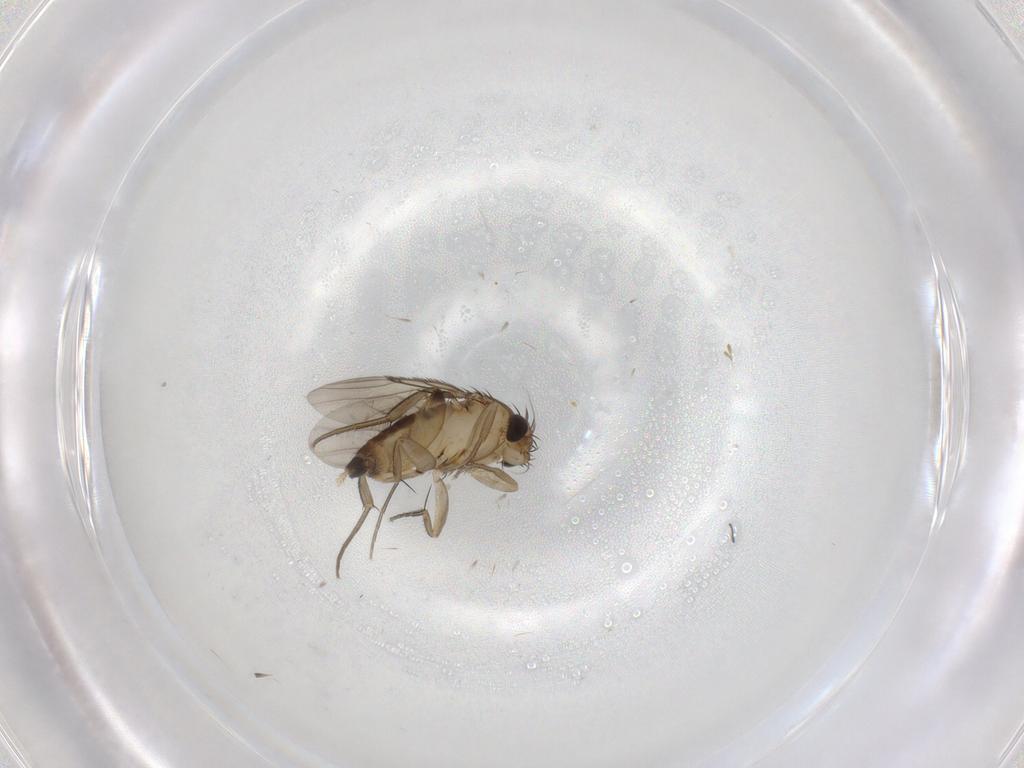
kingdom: Animalia
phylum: Arthropoda
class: Insecta
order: Diptera
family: Phoridae
